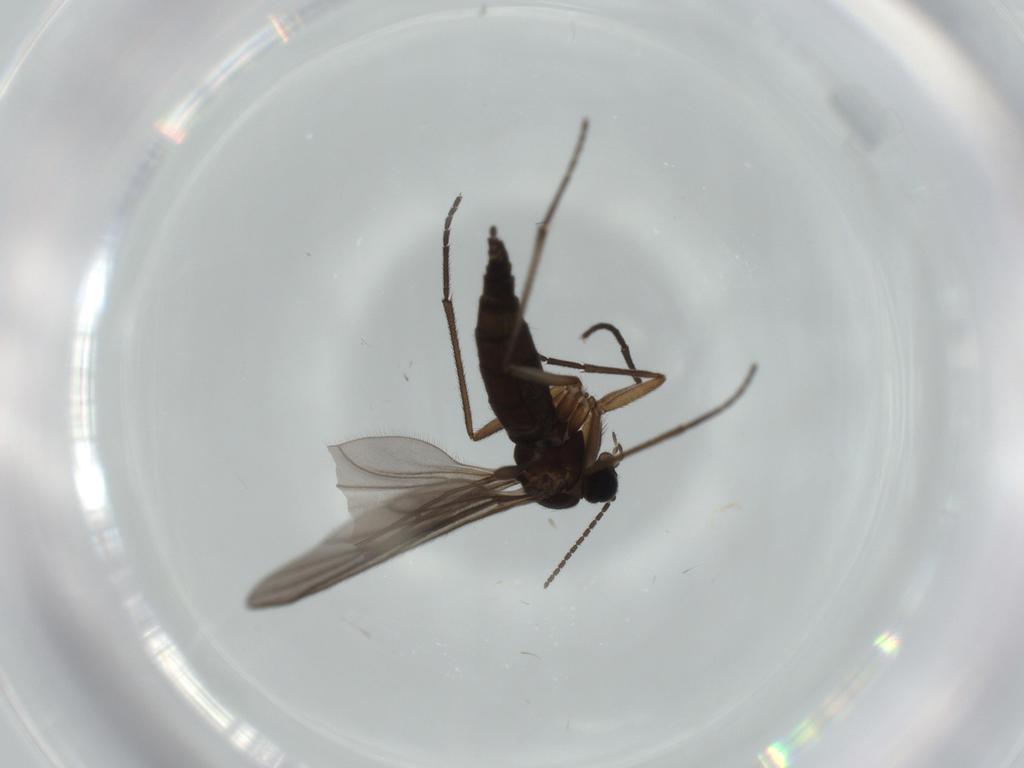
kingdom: Animalia
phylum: Arthropoda
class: Insecta
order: Diptera
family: Sciaridae
